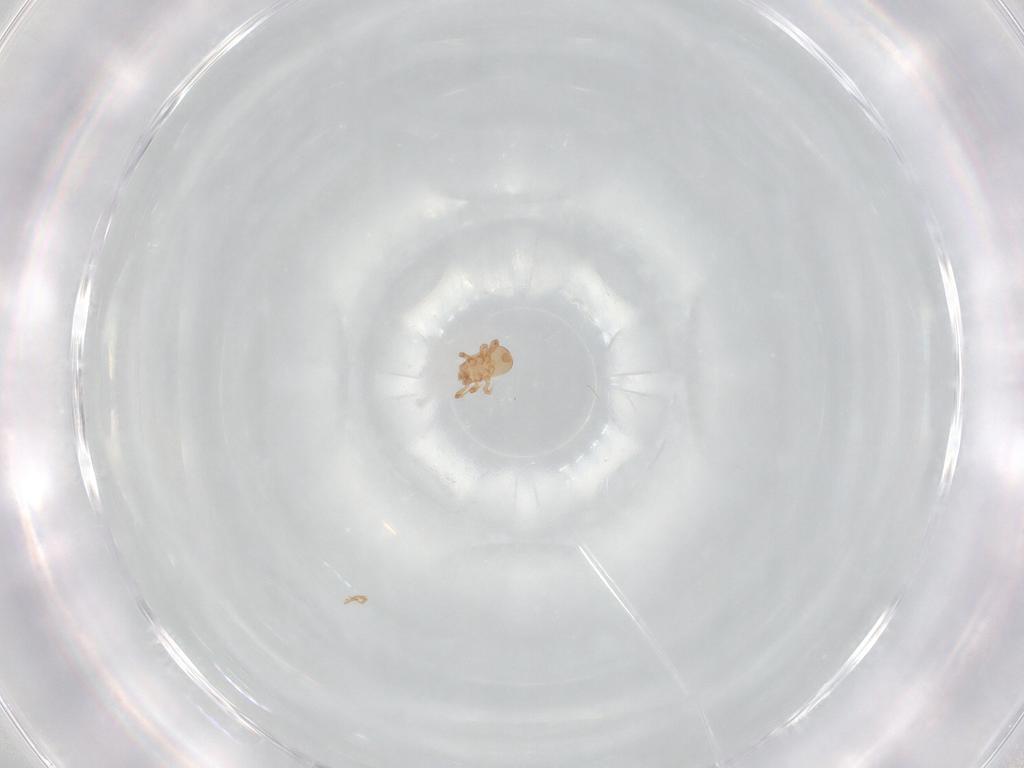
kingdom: Animalia
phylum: Arthropoda
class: Arachnida
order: Mesostigmata
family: Ascidae
